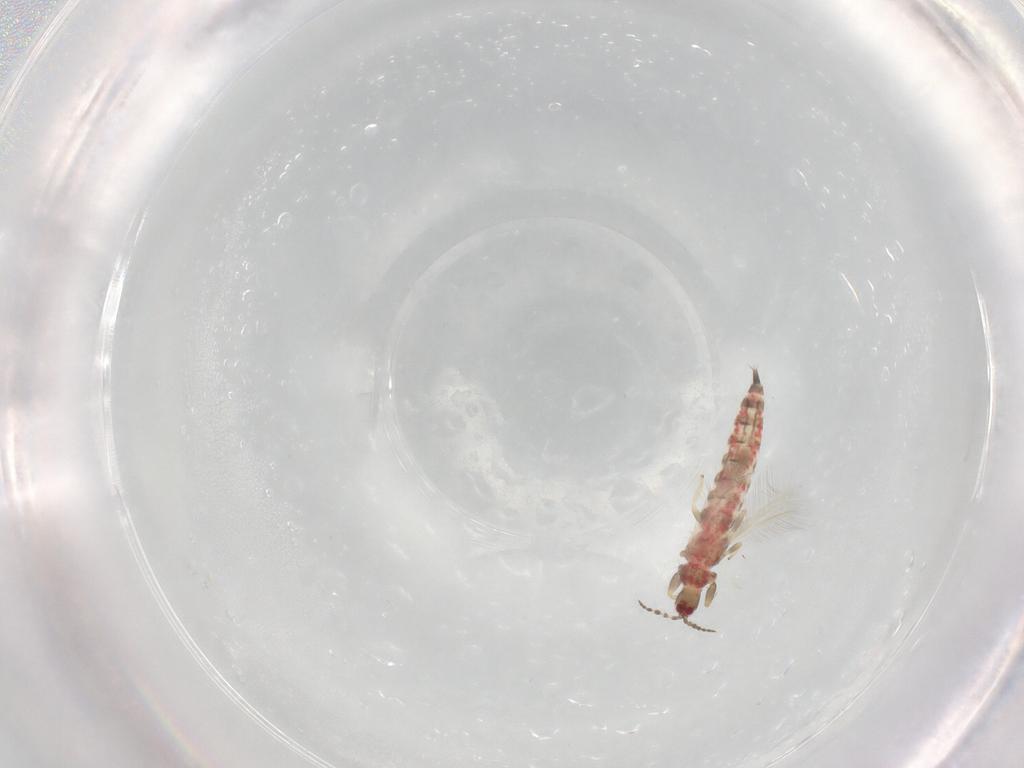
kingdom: Animalia
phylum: Arthropoda
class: Insecta
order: Thysanoptera
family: Phlaeothripidae
